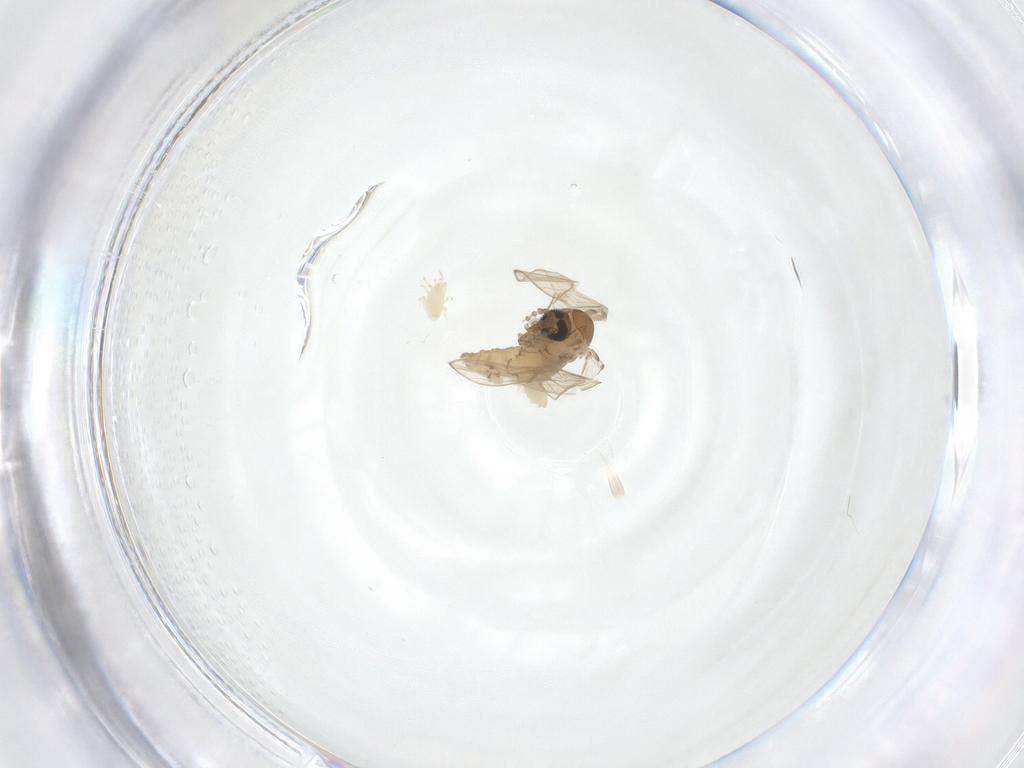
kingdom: Animalia
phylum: Arthropoda
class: Insecta
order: Diptera
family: Psychodidae
